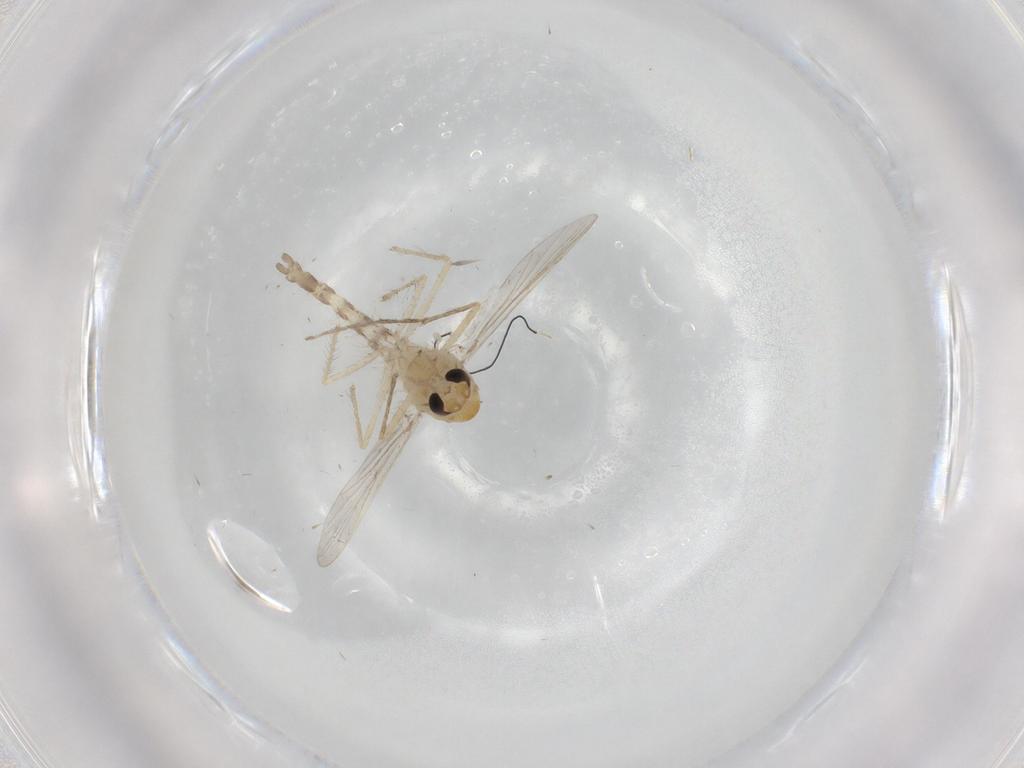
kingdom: Animalia
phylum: Arthropoda
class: Insecta
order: Diptera
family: Chironomidae
